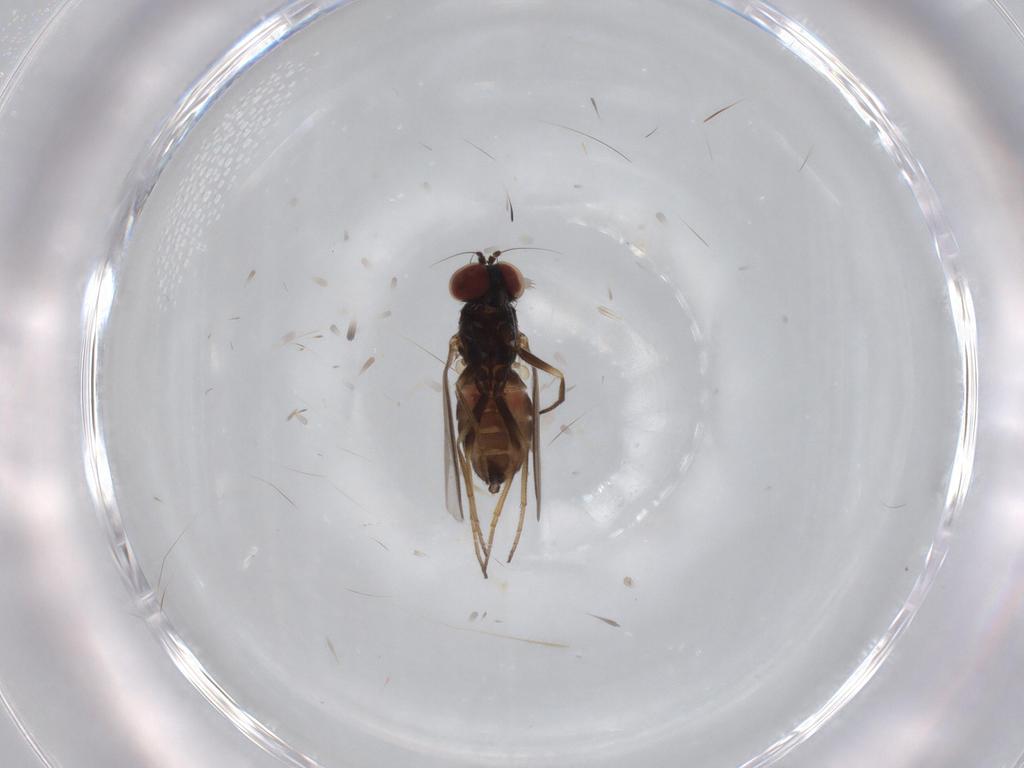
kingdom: Animalia
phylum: Arthropoda
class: Insecta
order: Diptera
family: Dolichopodidae
